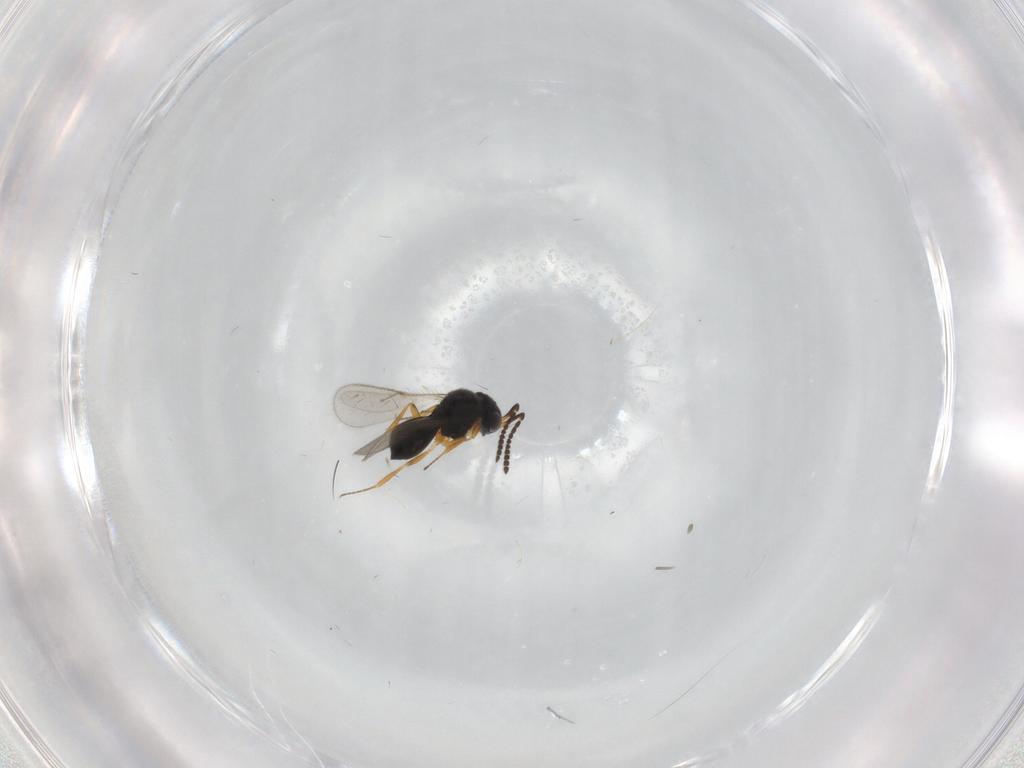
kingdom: Animalia
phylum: Arthropoda
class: Insecta
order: Hymenoptera
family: Scelionidae
